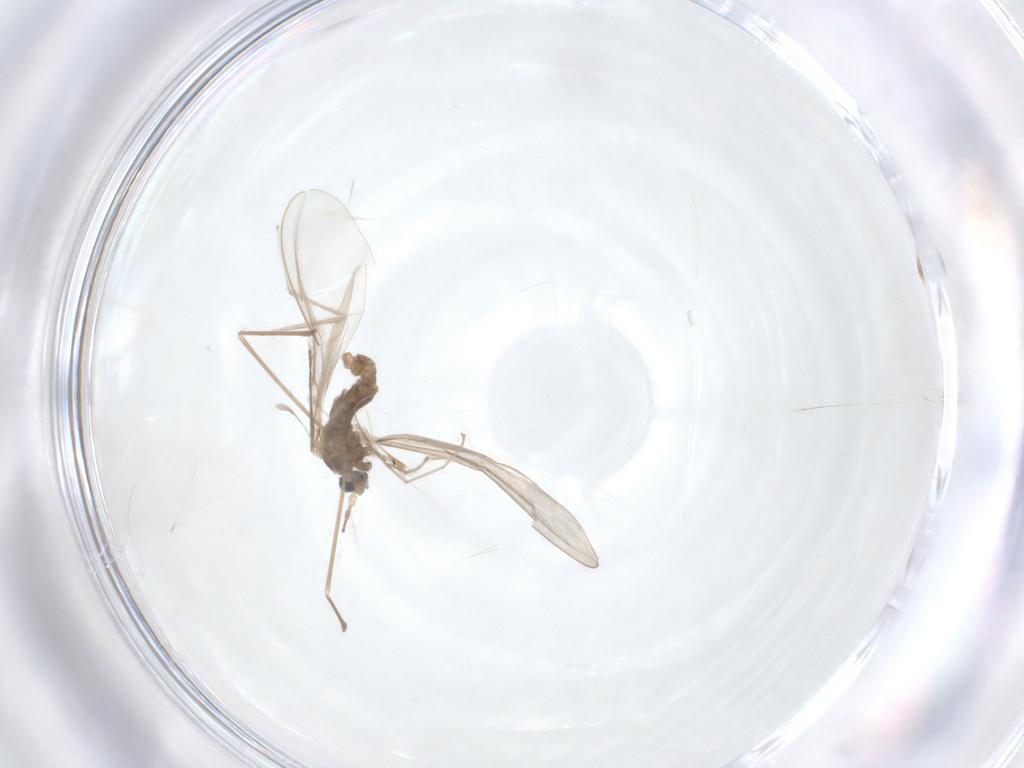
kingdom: Animalia
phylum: Arthropoda
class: Insecta
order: Diptera
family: Cecidomyiidae
